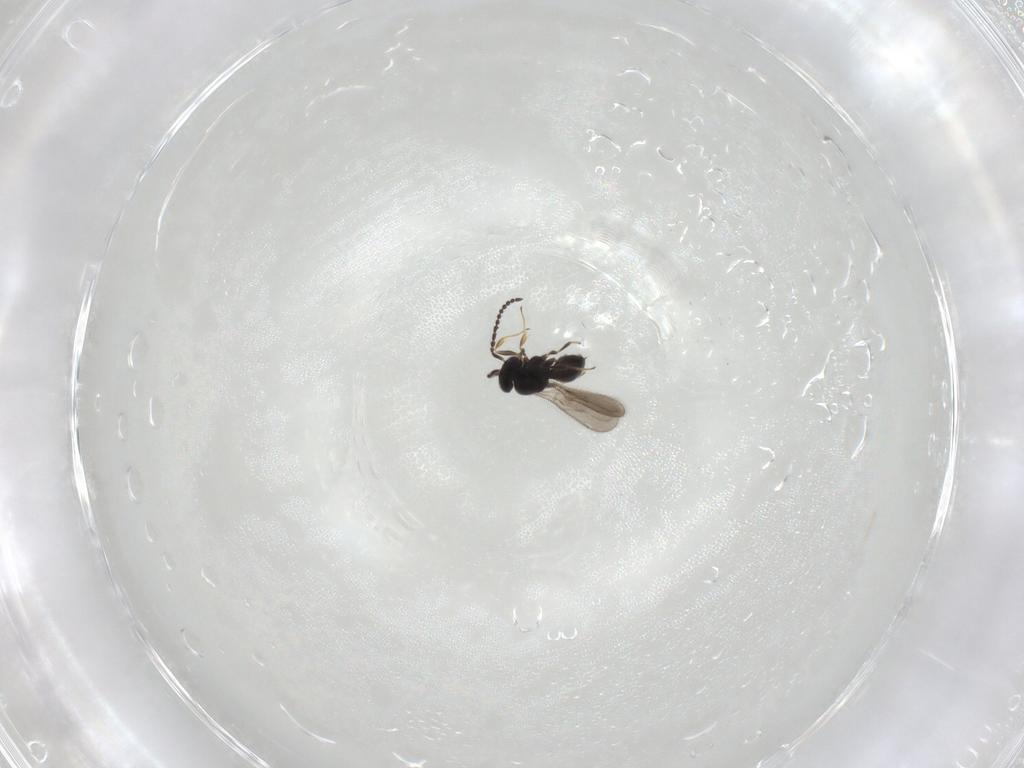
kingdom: Animalia
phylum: Arthropoda
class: Insecta
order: Hymenoptera
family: Scelionidae
